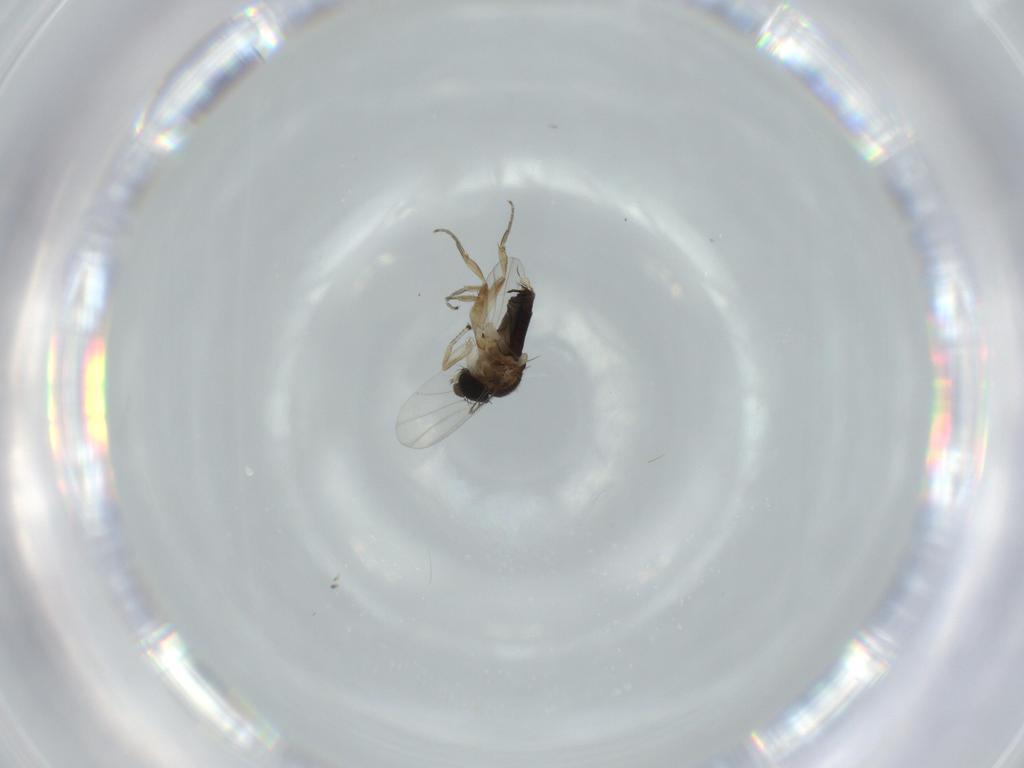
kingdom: Animalia
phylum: Arthropoda
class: Insecta
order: Diptera
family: Phoridae
